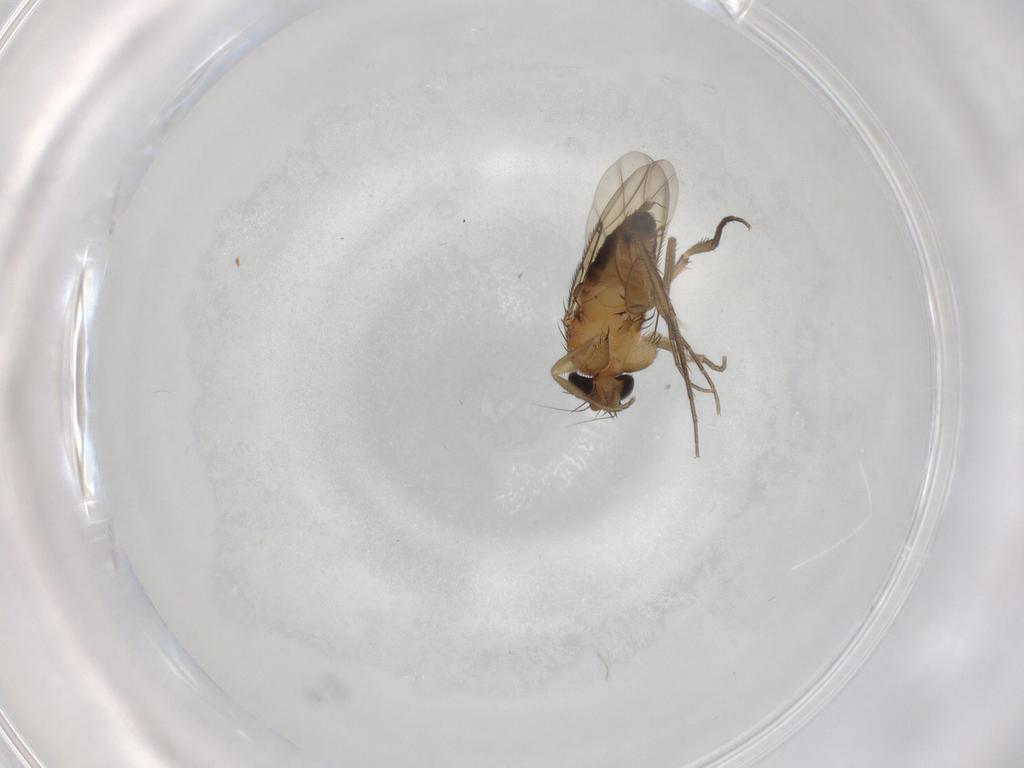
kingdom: Animalia
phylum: Arthropoda
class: Insecta
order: Diptera
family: Phoridae
